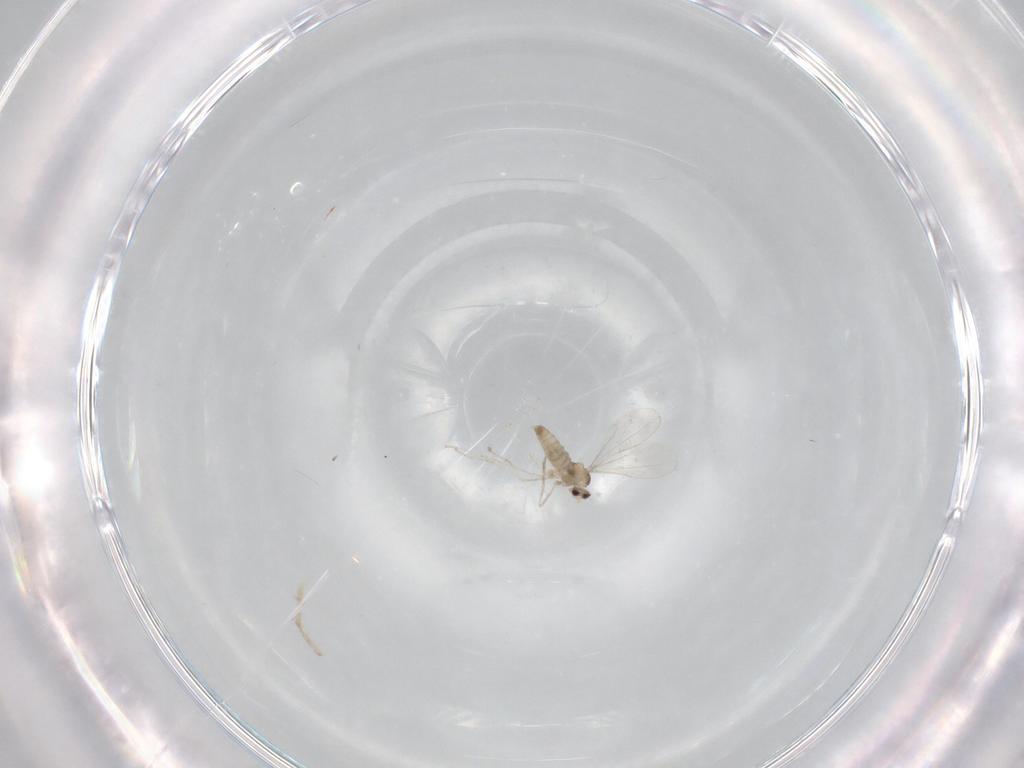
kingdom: Animalia
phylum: Arthropoda
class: Insecta
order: Diptera
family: Cecidomyiidae
